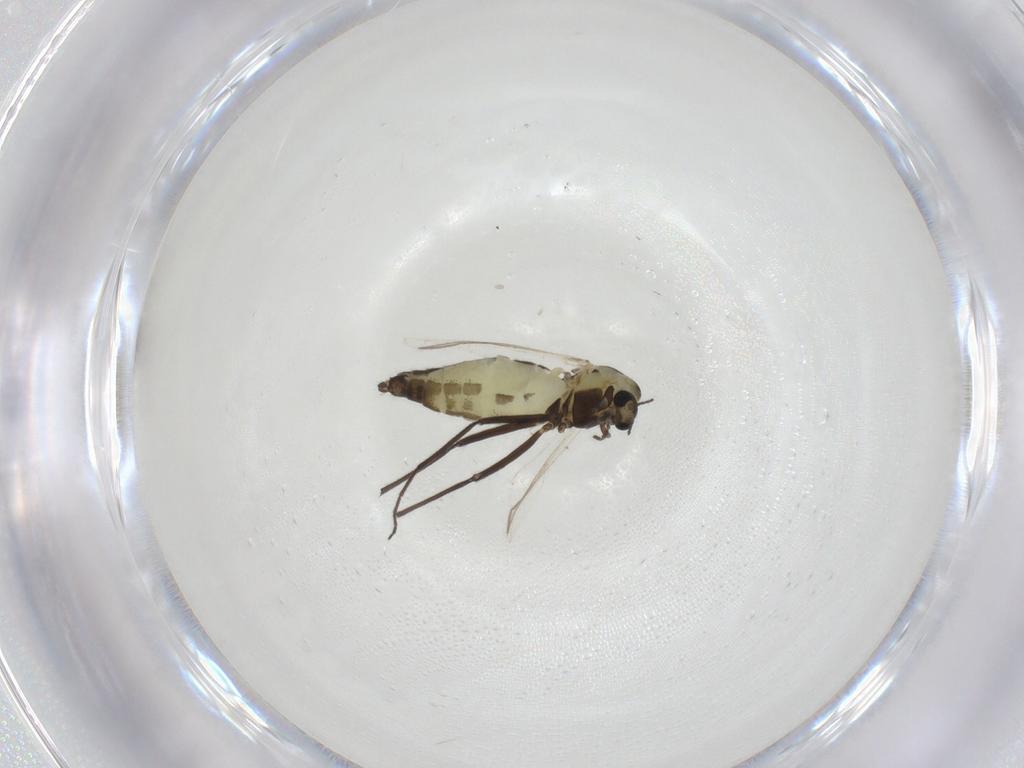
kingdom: Animalia
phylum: Arthropoda
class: Insecta
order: Diptera
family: Chironomidae
